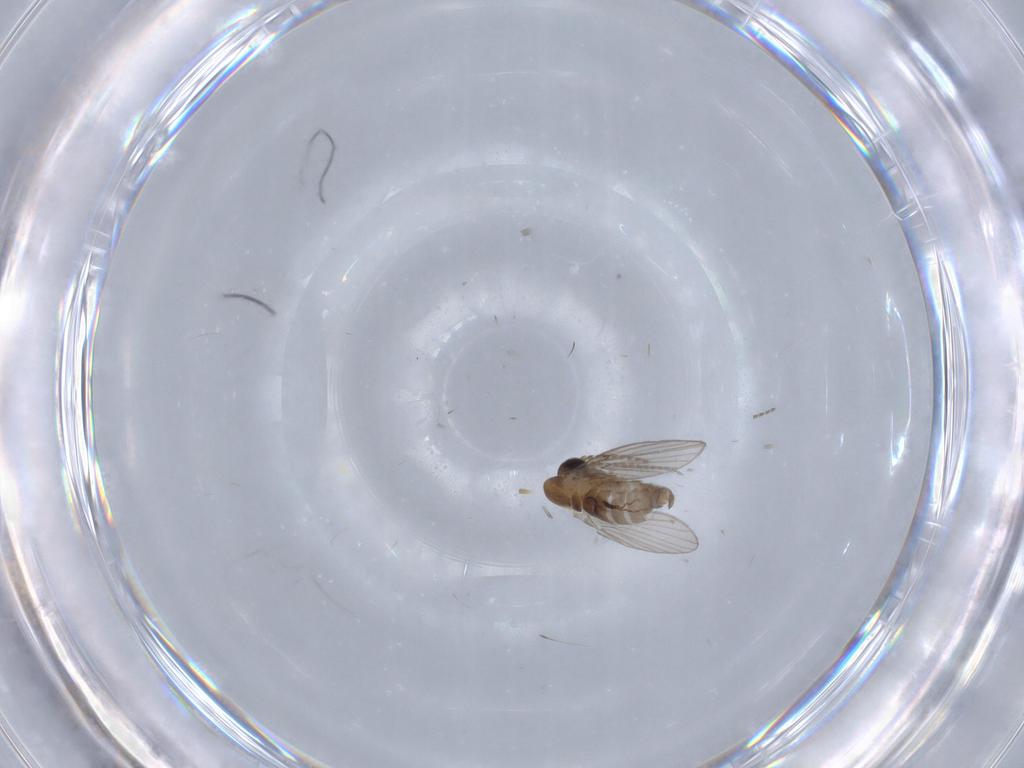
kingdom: Animalia
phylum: Arthropoda
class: Insecta
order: Diptera
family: Sphaeroceridae
